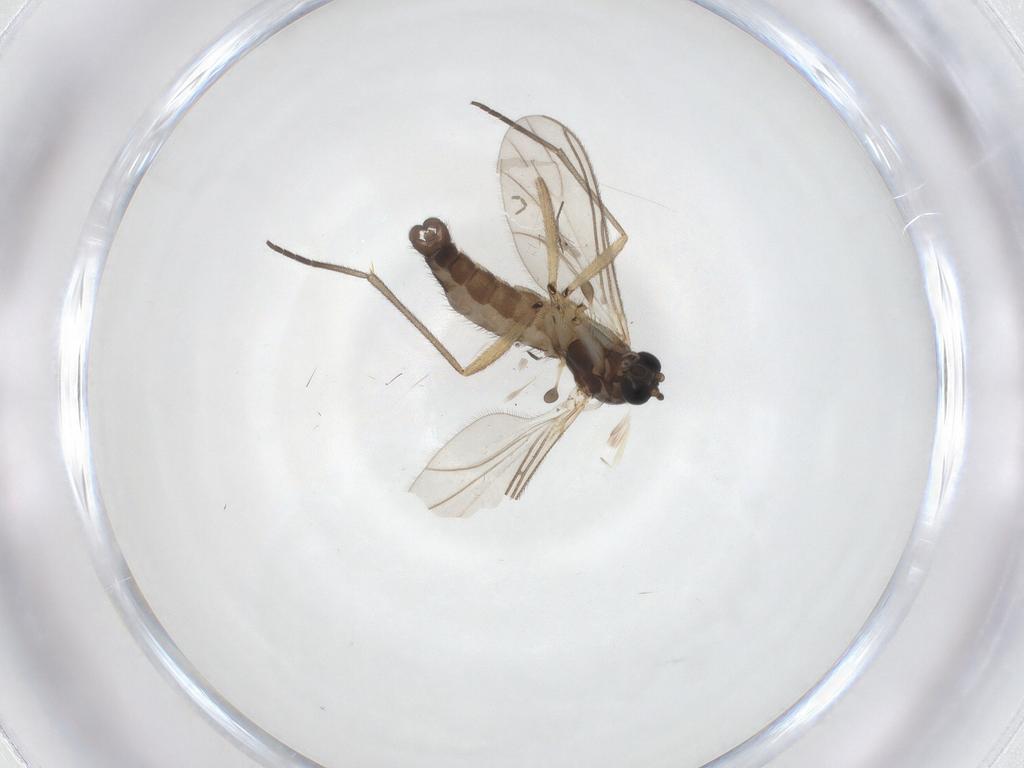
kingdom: Animalia
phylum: Arthropoda
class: Insecta
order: Diptera
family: Sciaridae
